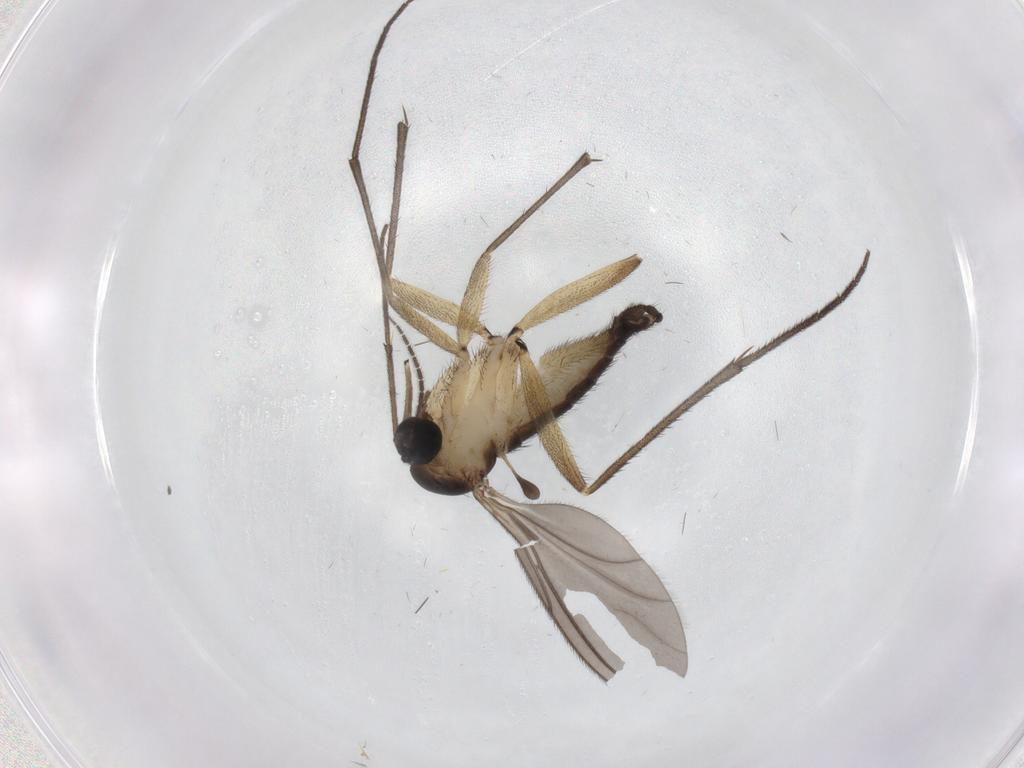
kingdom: Animalia
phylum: Arthropoda
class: Insecta
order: Diptera
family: Sciaridae
